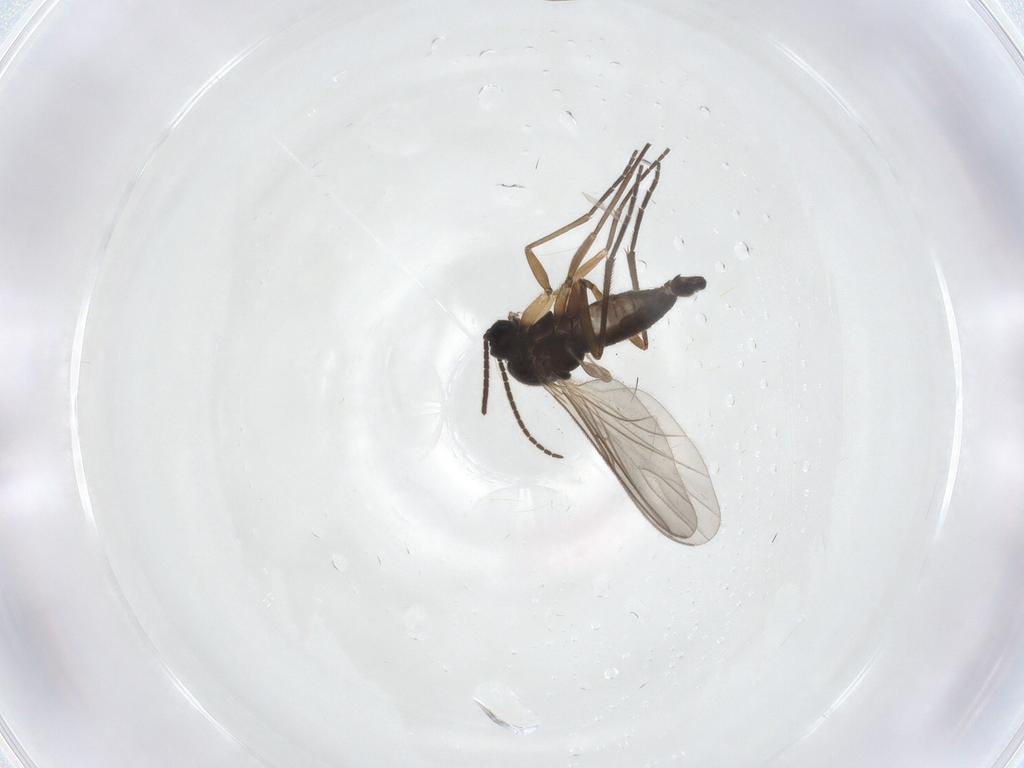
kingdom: Animalia
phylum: Arthropoda
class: Insecta
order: Diptera
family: Sciaridae
